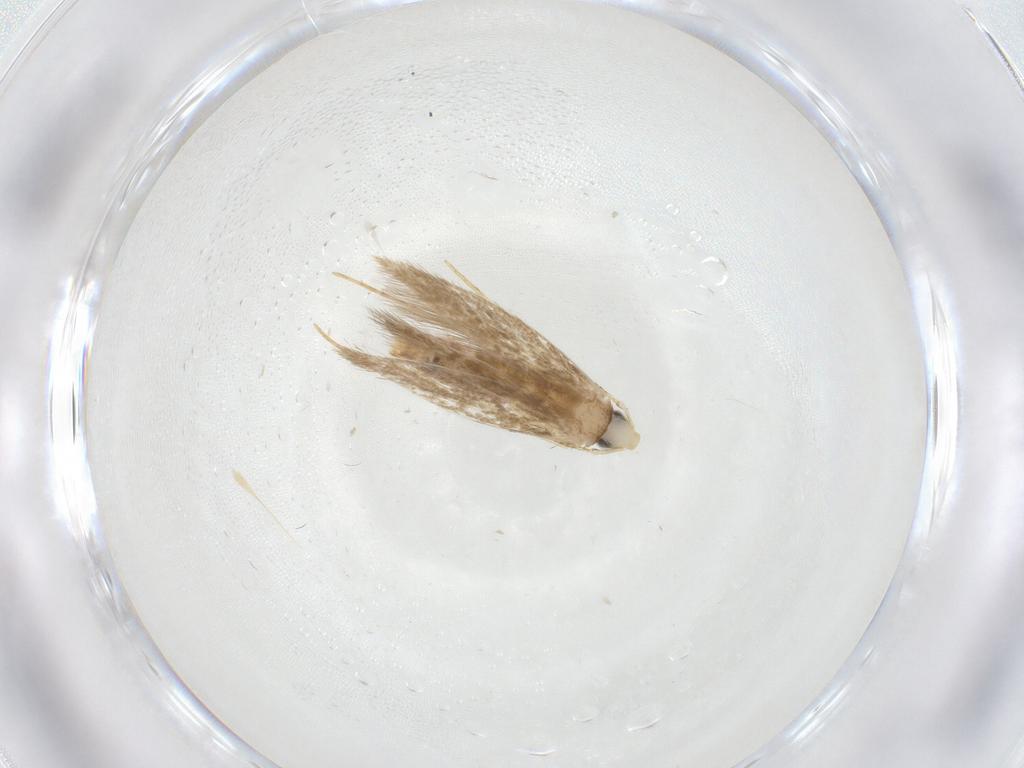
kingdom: Animalia
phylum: Arthropoda
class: Insecta
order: Lepidoptera
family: Psychidae
